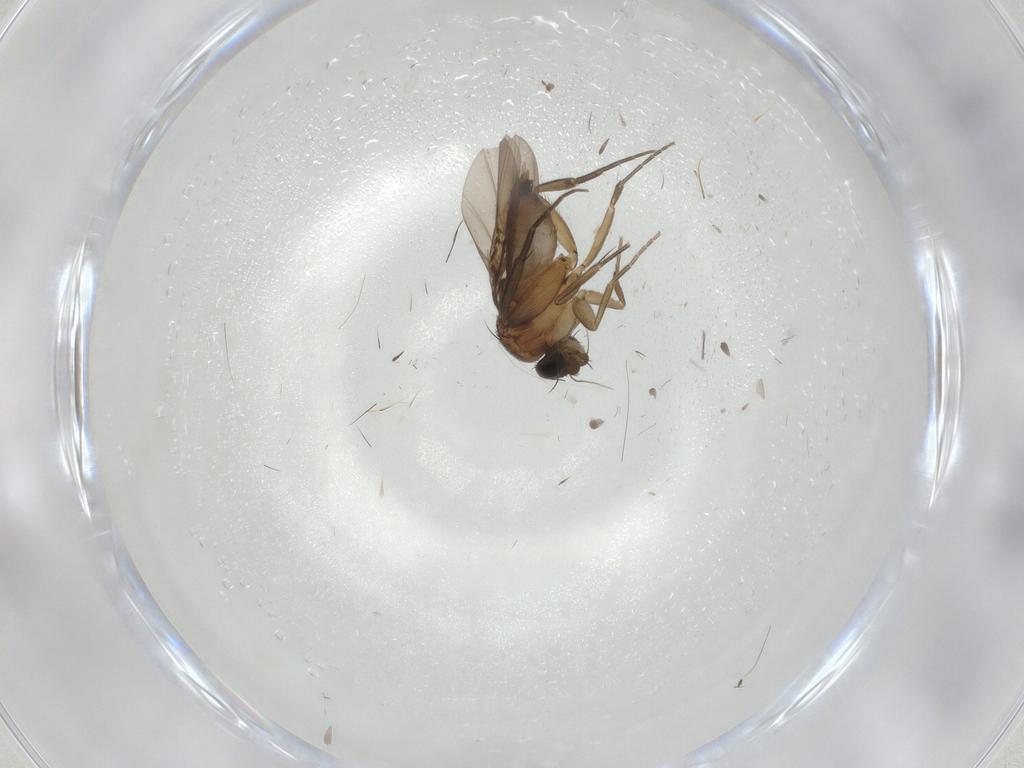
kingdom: Animalia
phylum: Arthropoda
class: Insecta
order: Diptera
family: Phoridae
